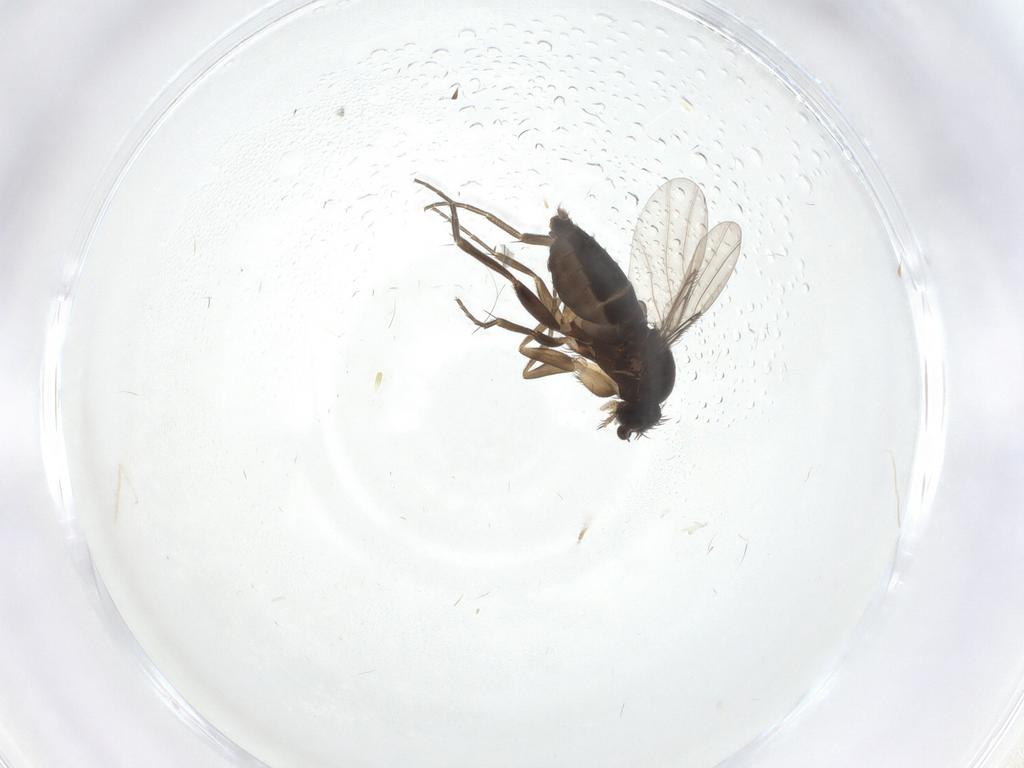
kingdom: Animalia
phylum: Arthropoda
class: Insecta
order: Diptera
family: Phoridae
